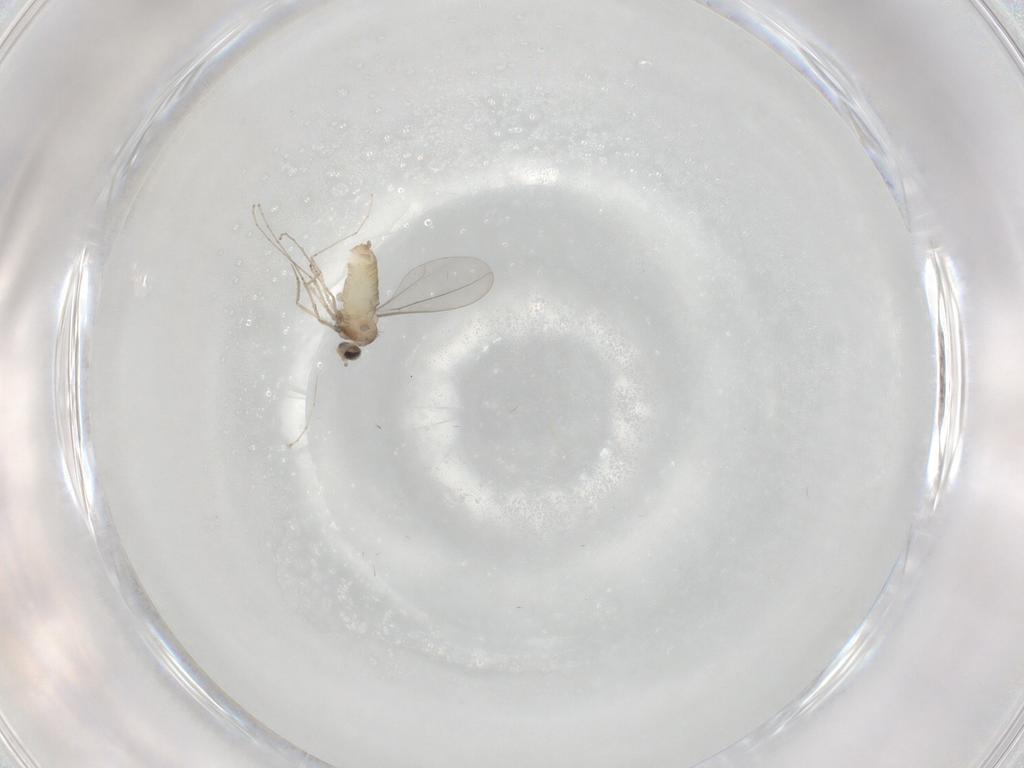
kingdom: Animalia
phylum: Arthropoda
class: Insecta
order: Diptera
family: Cecidomyiidae
